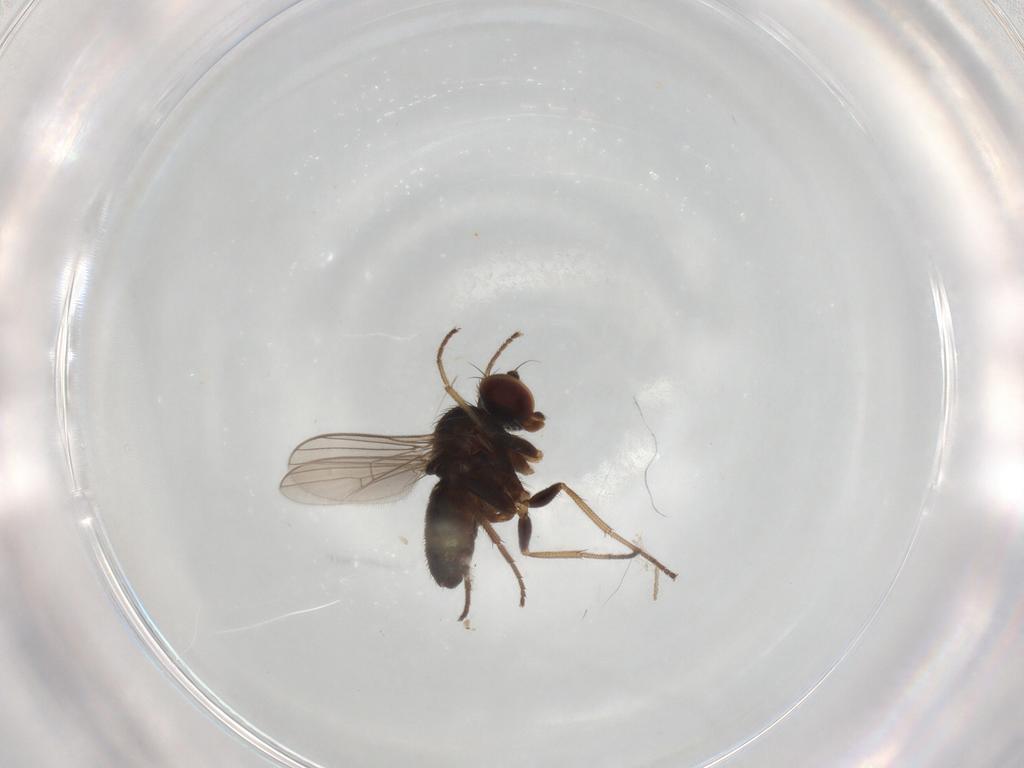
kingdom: Animalia
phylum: Arthropoda
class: Insecta
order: Diptera
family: Dolichopodidae
